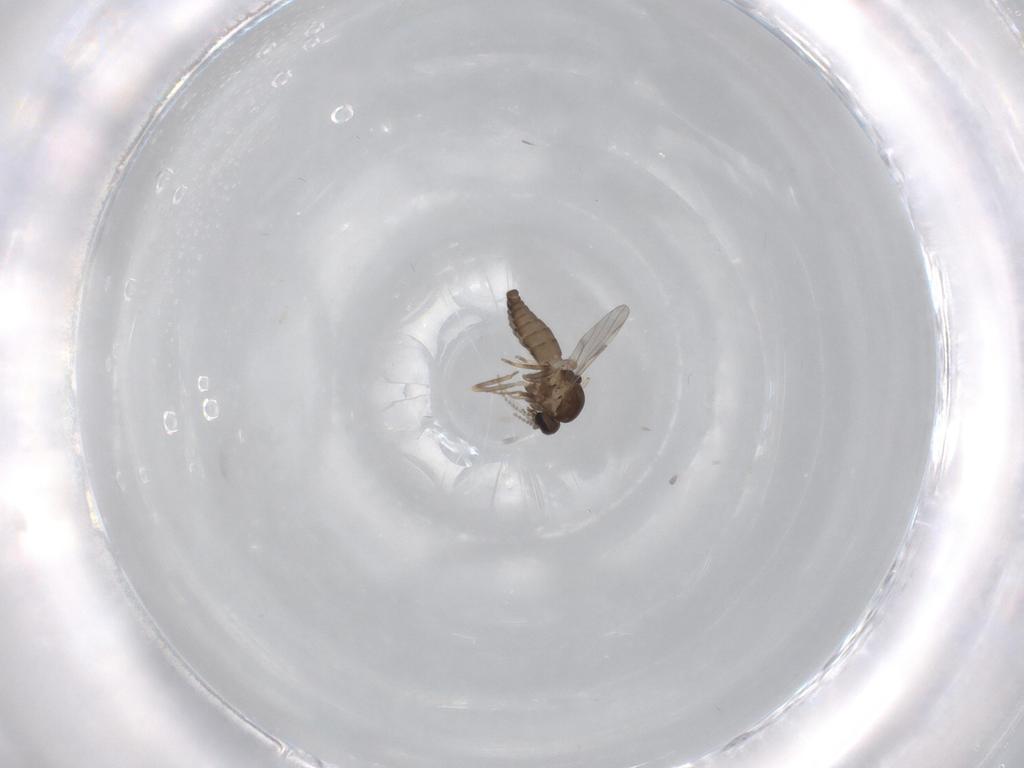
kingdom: Animalia
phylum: Arthropoda
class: Insecta
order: Diptera
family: Ceratopogonidae
